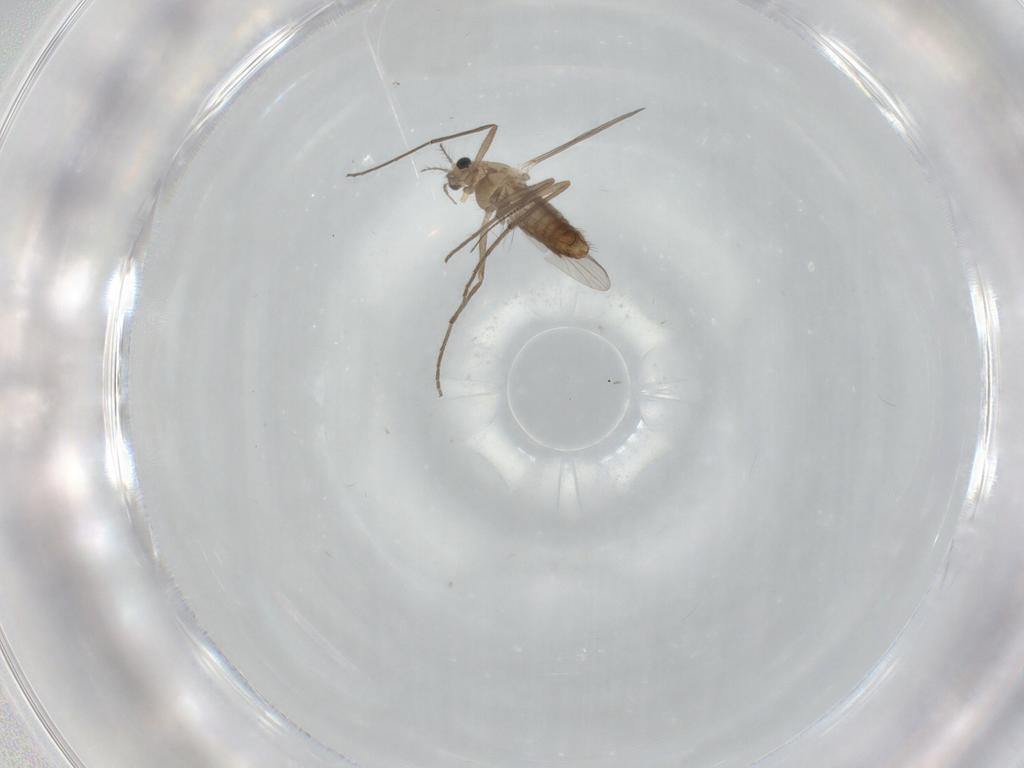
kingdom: Animalia
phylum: Arthropoda
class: Insecta
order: Diptera
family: Chironomidae
